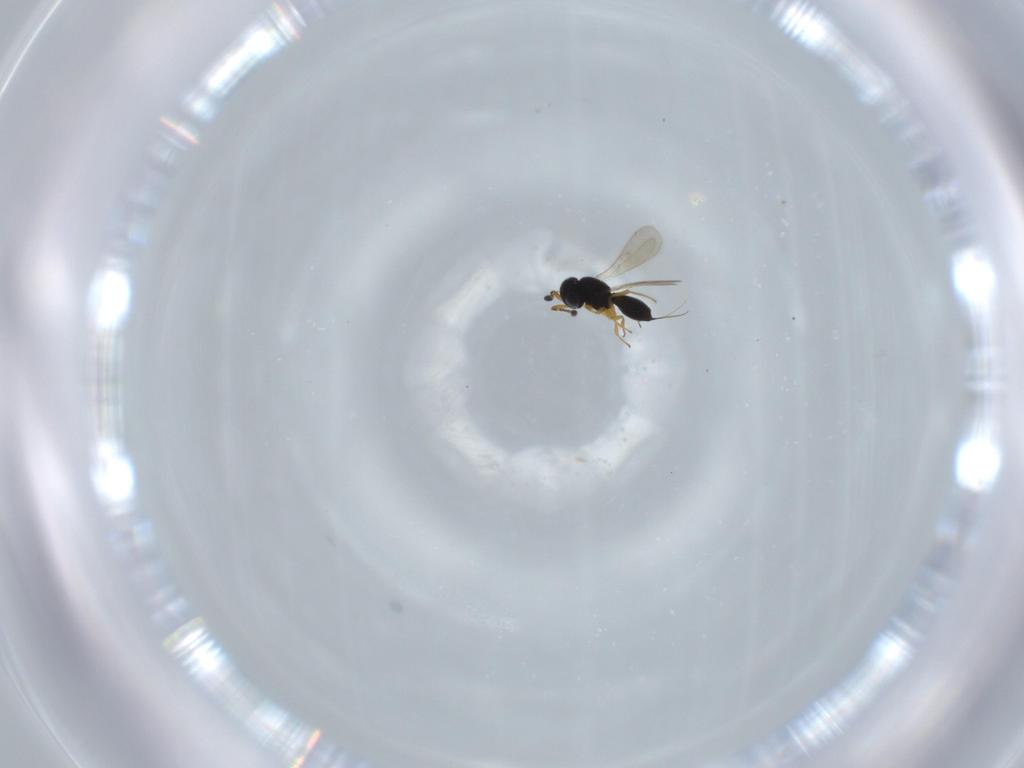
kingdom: Animalia
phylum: Arthropoda
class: Insecta
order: Hymenoptera
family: Scelionidae
